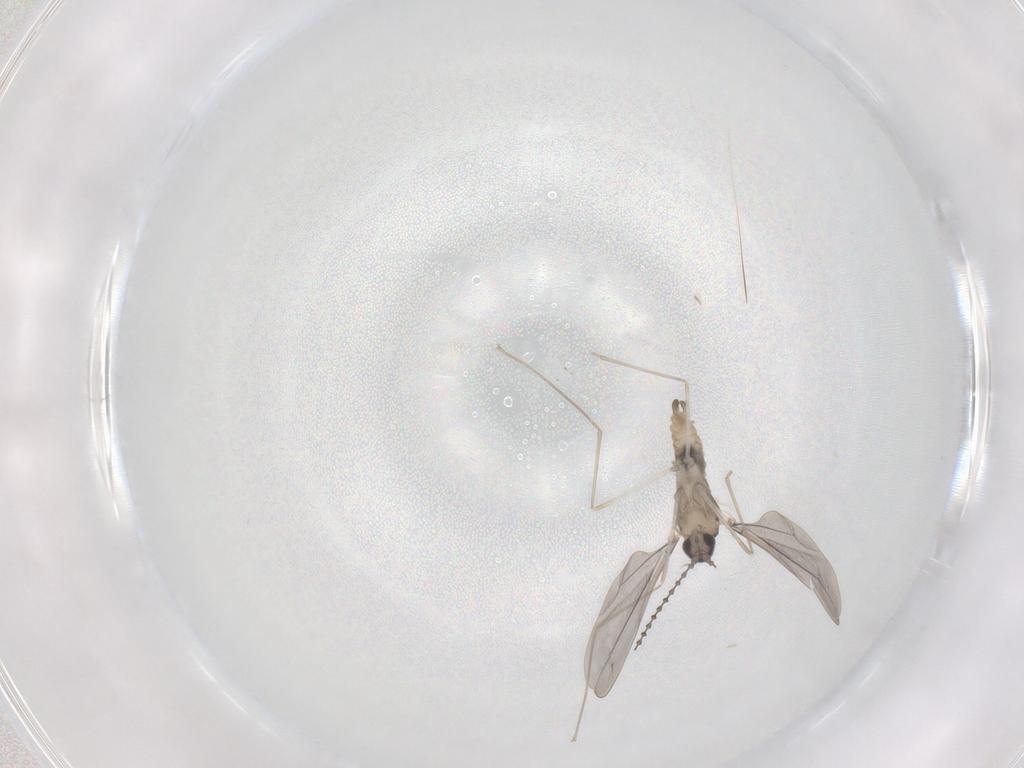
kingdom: Animalia
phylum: Arthropoda
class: Insecta
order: Diptera
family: Cecidomyiidae
